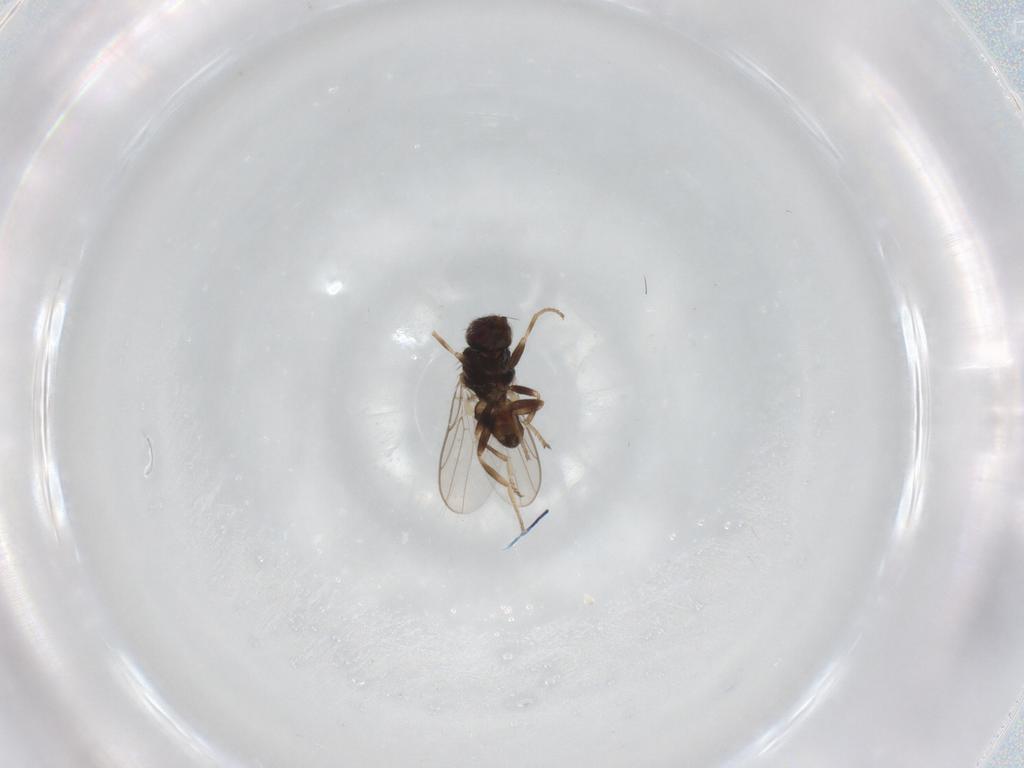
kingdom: Animalia
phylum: Arthropoda
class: Insecta
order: Diptera
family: Chloropidae
